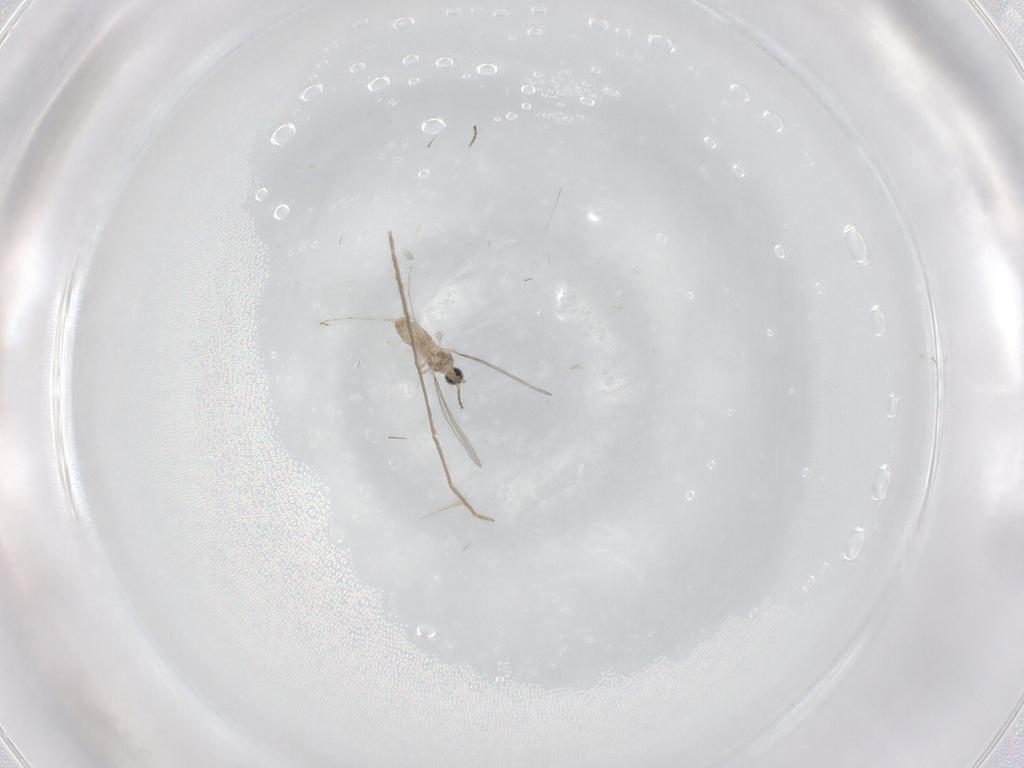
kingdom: Animalia
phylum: Arthropoda
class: Insecta
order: Diptera
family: Cecidomyiidae
